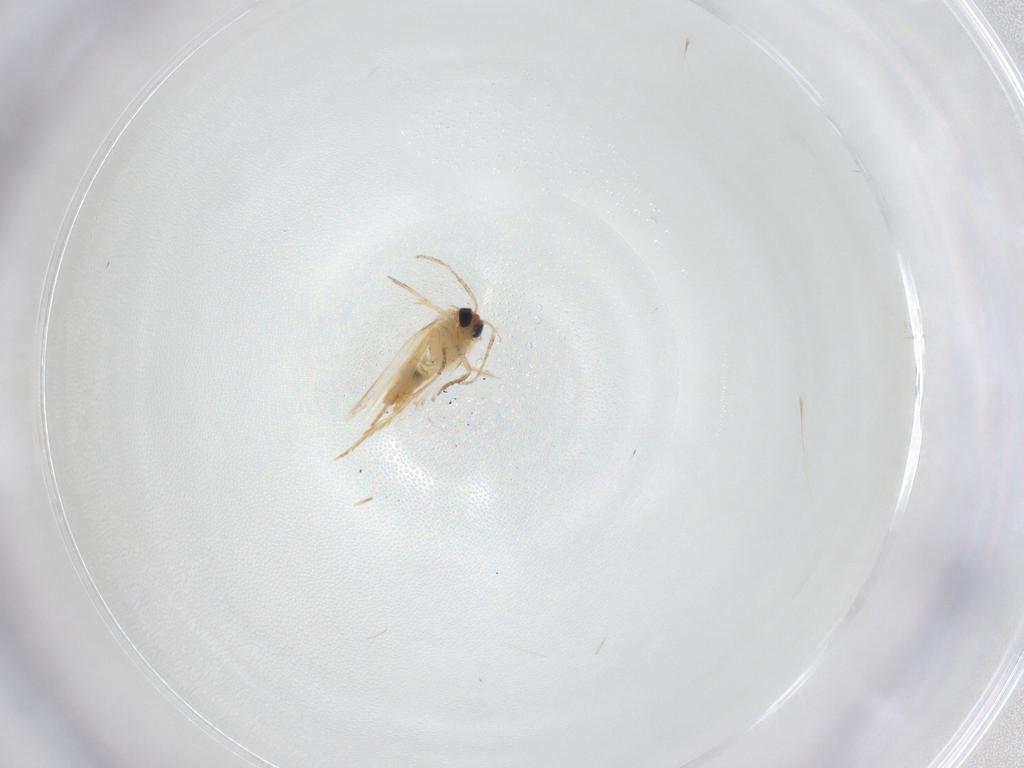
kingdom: Animalia
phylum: Arthropoda
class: Insecta
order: Lepidoptera
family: Crambidae
